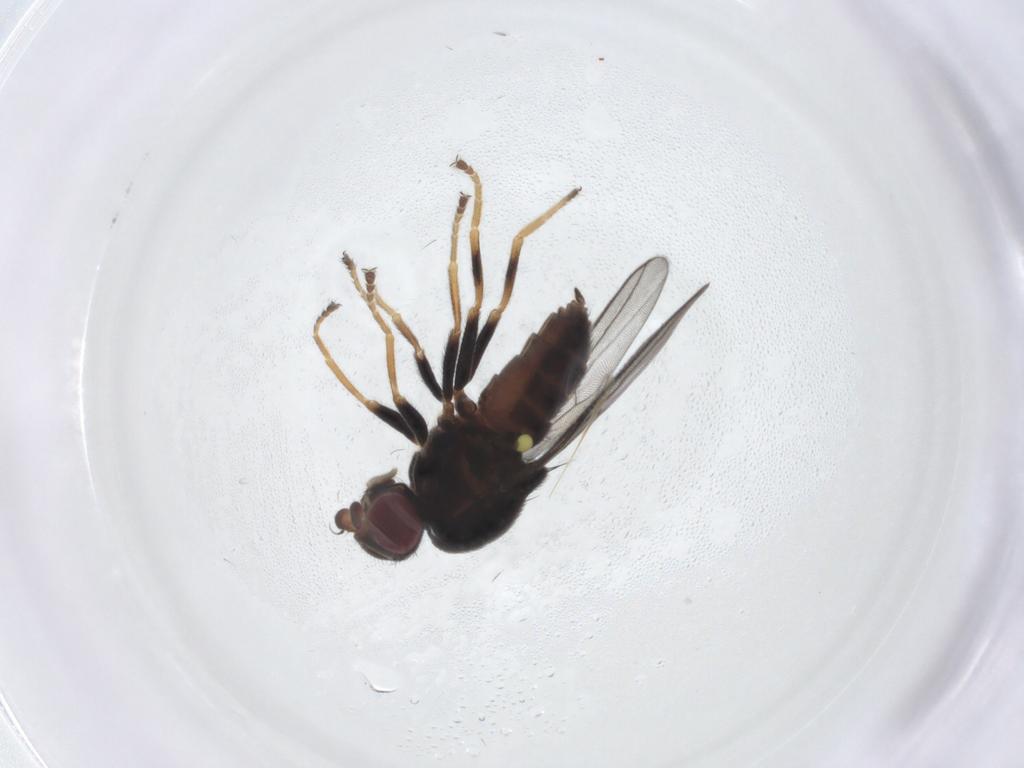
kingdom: Animalia
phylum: Arthropoda
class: Insecta
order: Diptera
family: Chloropidae
